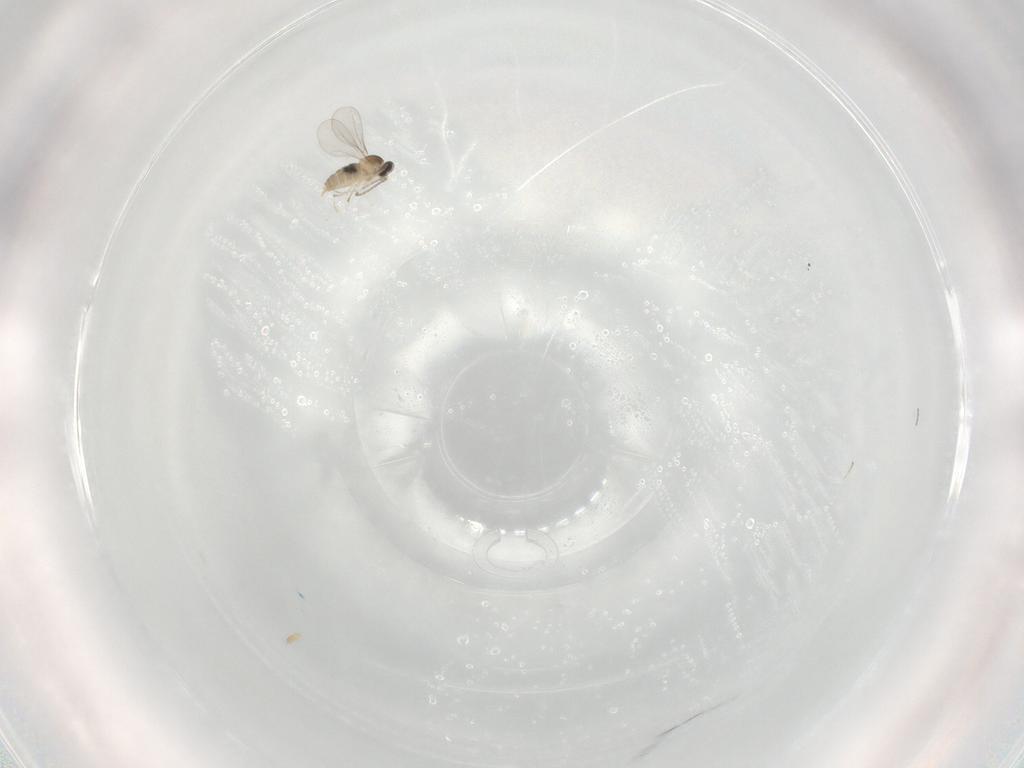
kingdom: Animalia
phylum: Arthropoda
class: Insecta
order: Diptera
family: Cecidomyiidae
